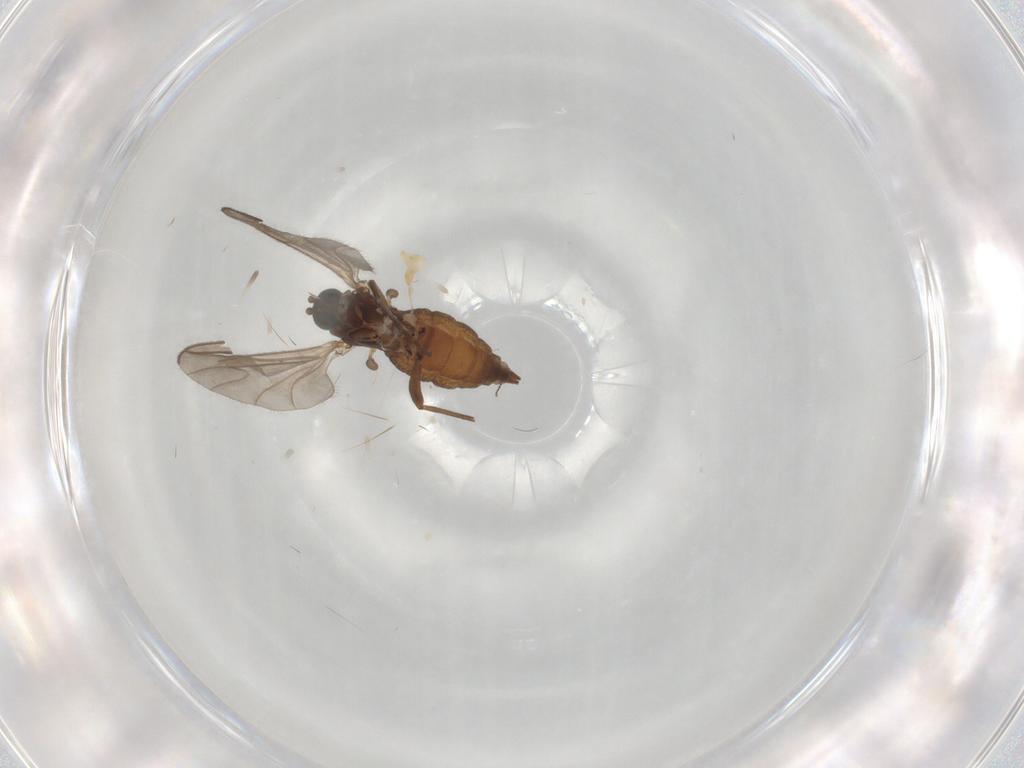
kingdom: Animalia
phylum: Arthropoda
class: Insecta
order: Diptera
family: Sciaridae
